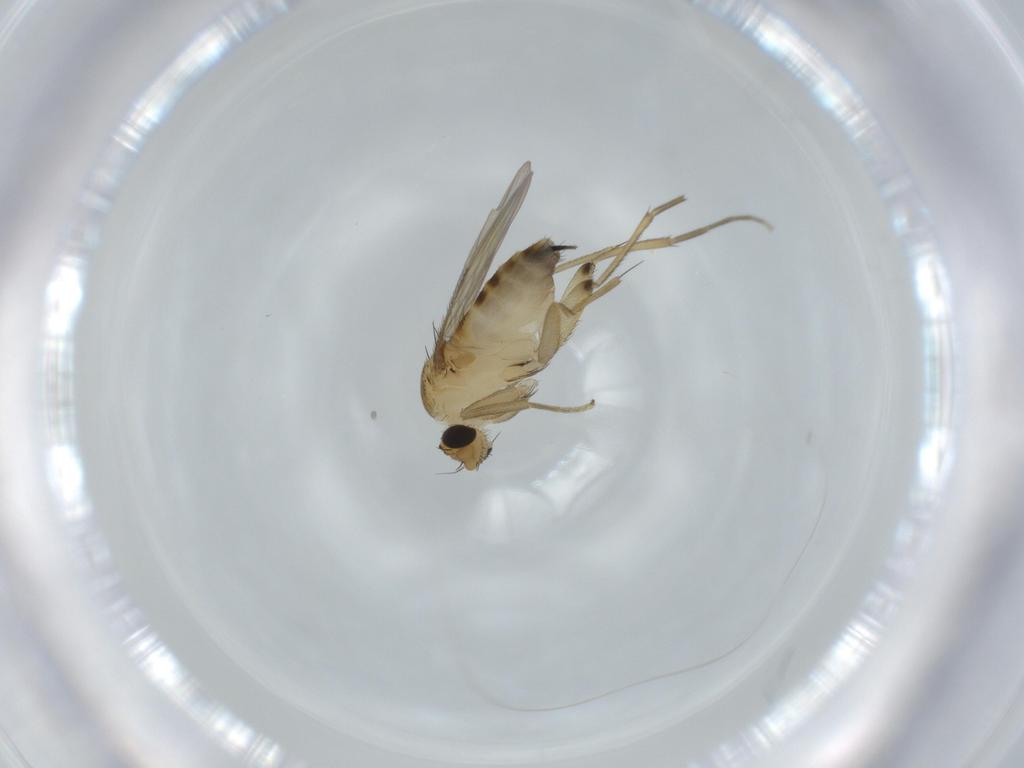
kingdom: Animalia
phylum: Arthropoda
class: Insecta
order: Diptera
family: Phoridae
